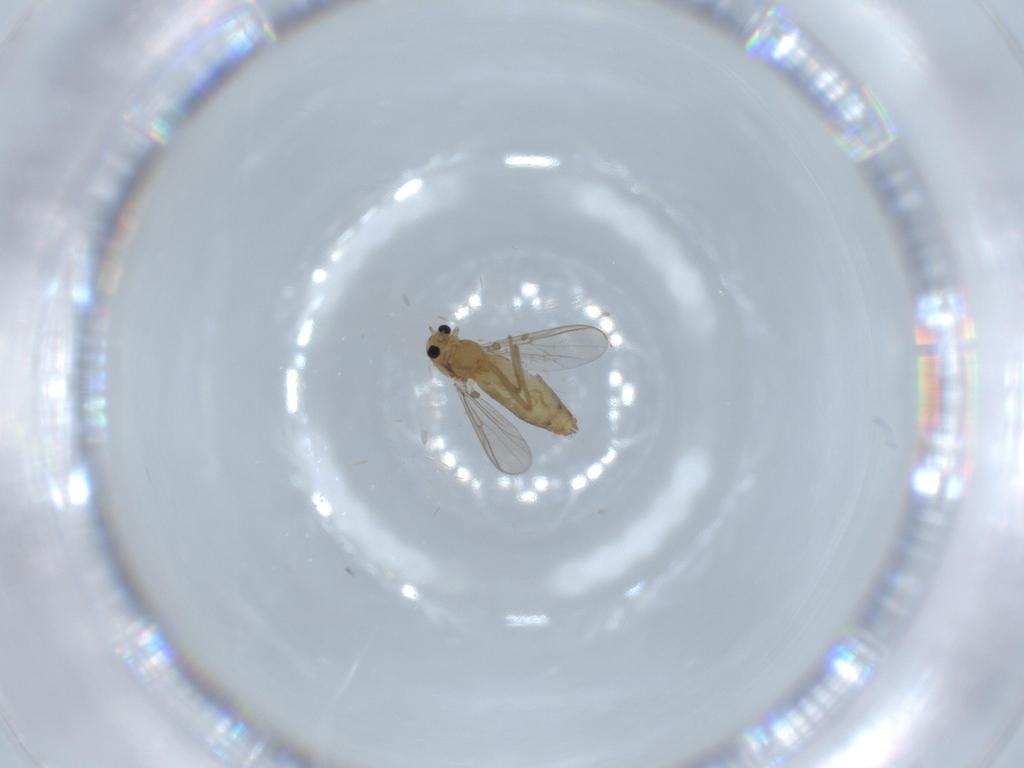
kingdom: Animalia
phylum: Arthropoda
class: Insecta
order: Diptera
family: Chironomidae
